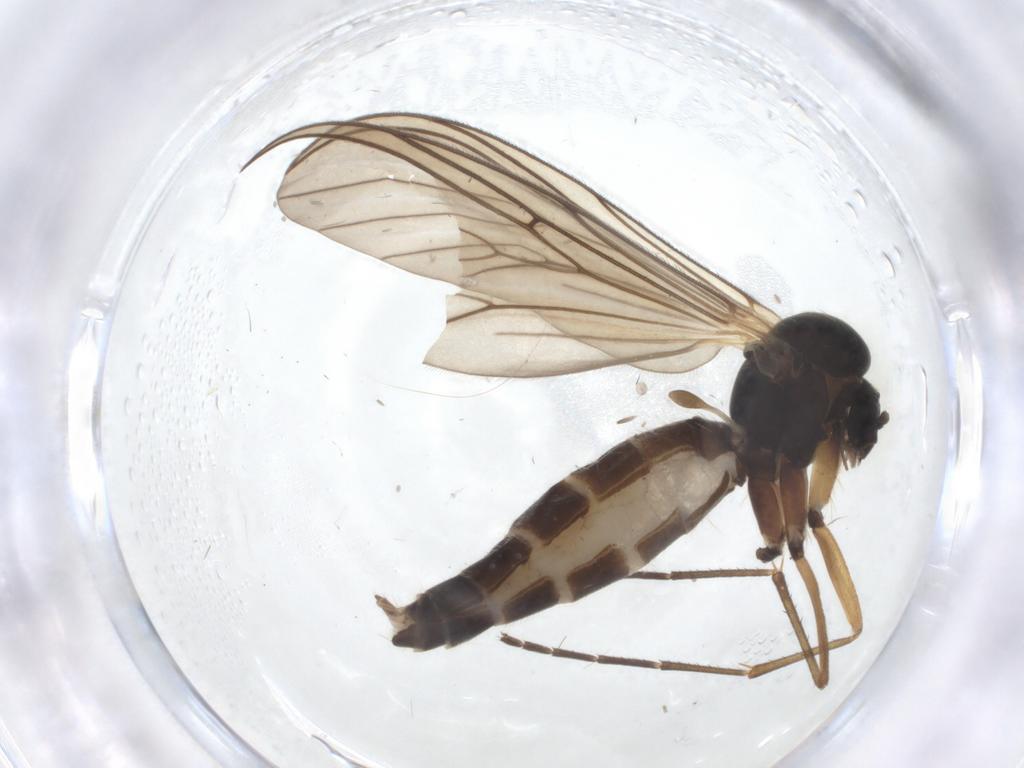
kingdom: Animalia
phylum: Arthropoda
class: Insecta
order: Diptera
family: Mycetophilidae
